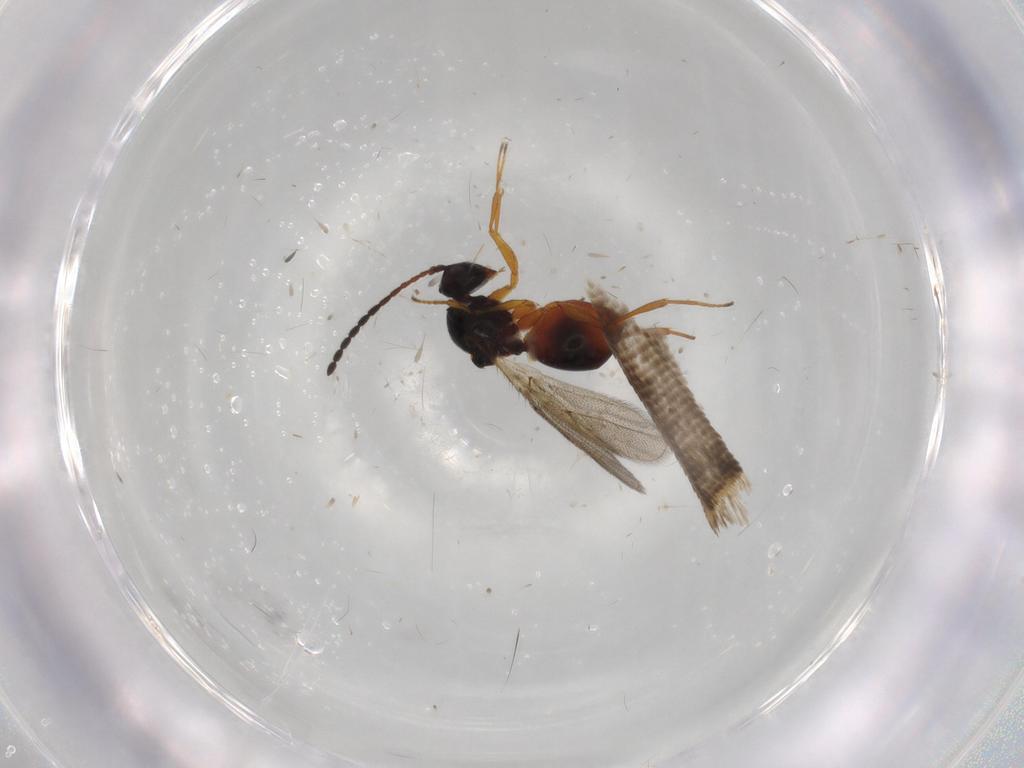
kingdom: Animalia
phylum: Arthropoda
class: Insecta
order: Hymenoptera
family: Figitidae
